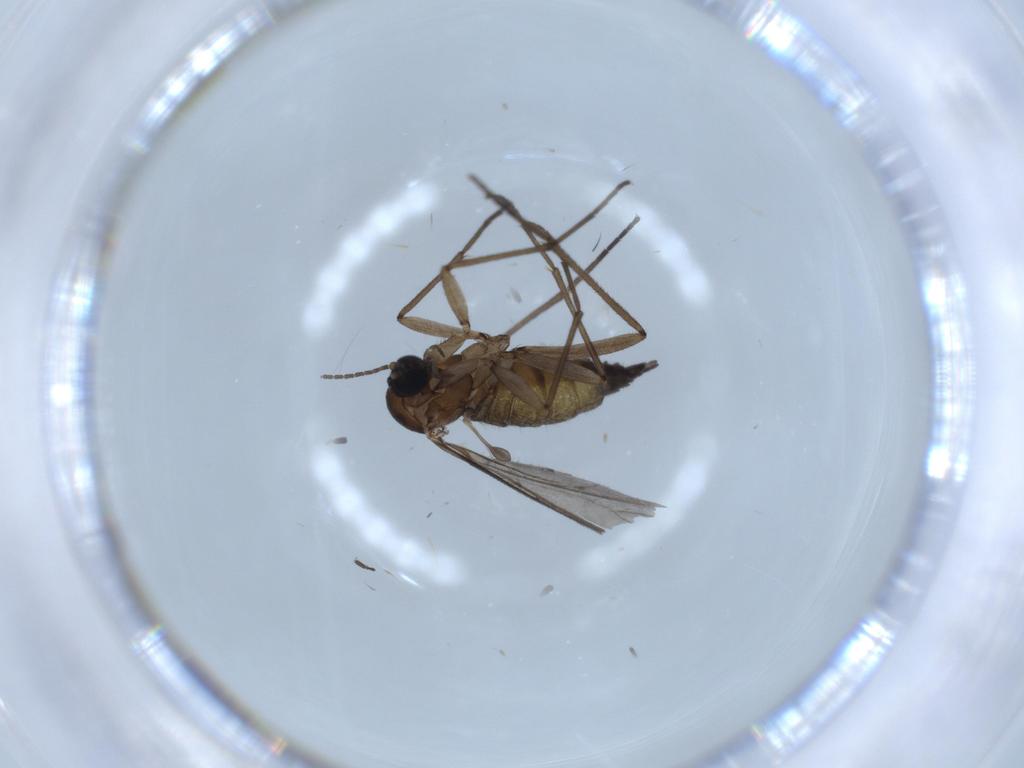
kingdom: Animalia
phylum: Arthropoda
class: Insecta
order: Diptera
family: Sciaridae
